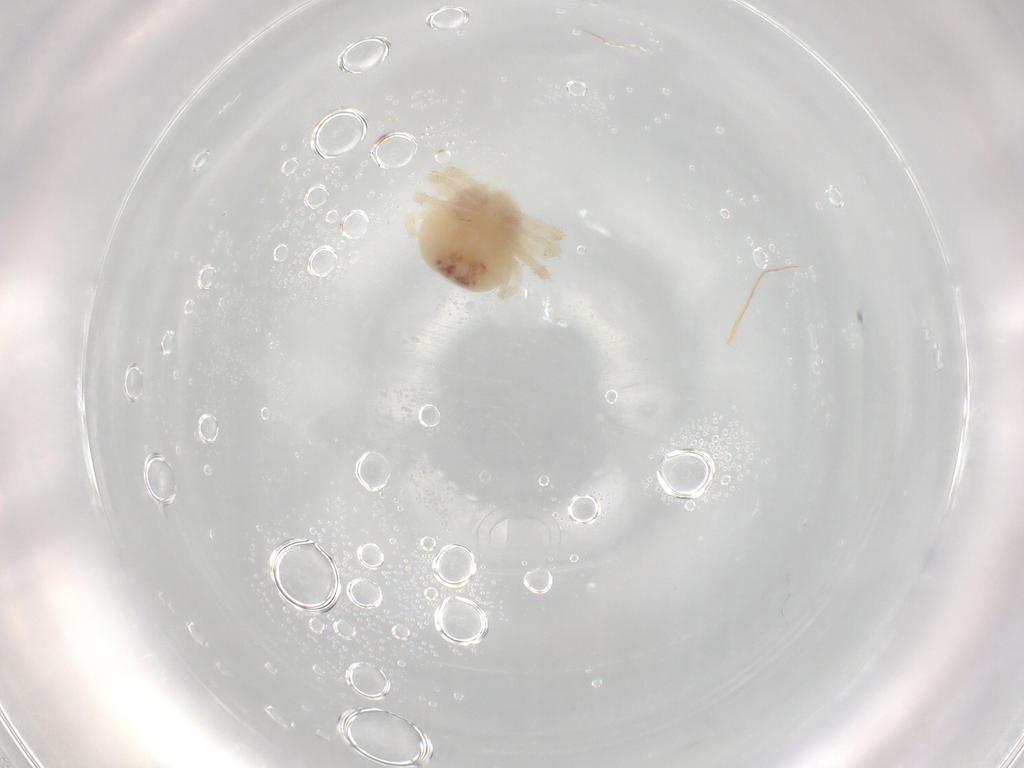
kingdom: Animalia
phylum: Arthropoda
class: Arachnida
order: Trombidiformes
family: Anystidae
